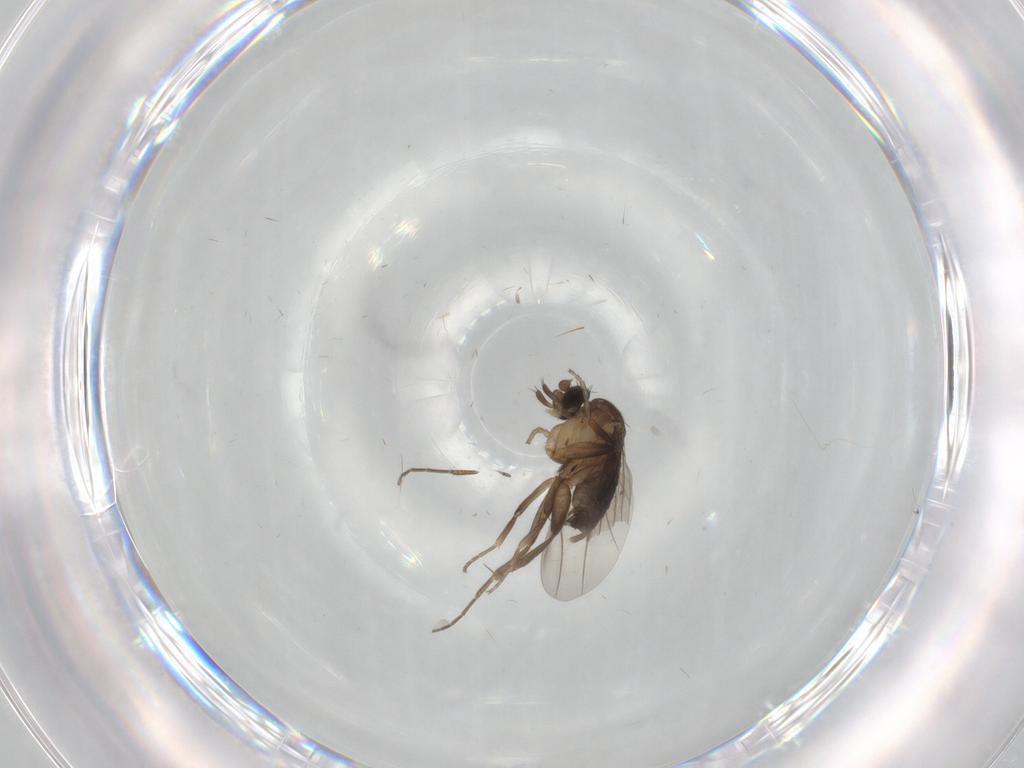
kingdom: Animalia
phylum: Arthropoda
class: Insecta
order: Diptera
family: Phoridae
